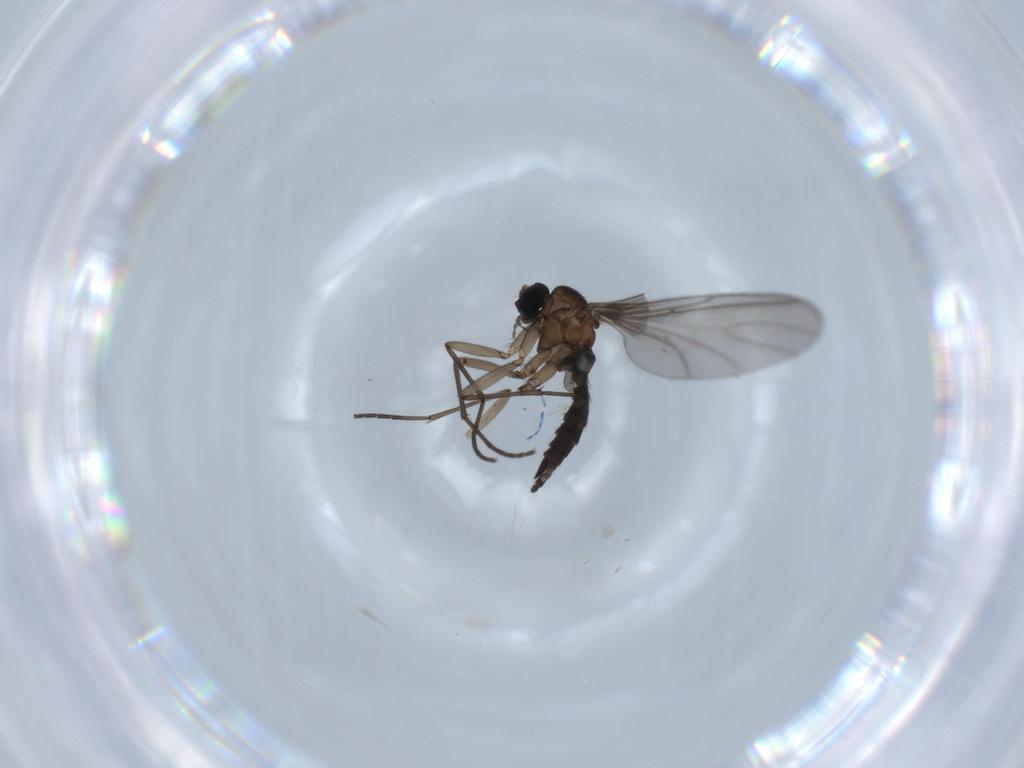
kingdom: Animalia
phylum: Arthropoda
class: Insecta
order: Diptera
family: Sciaridae
